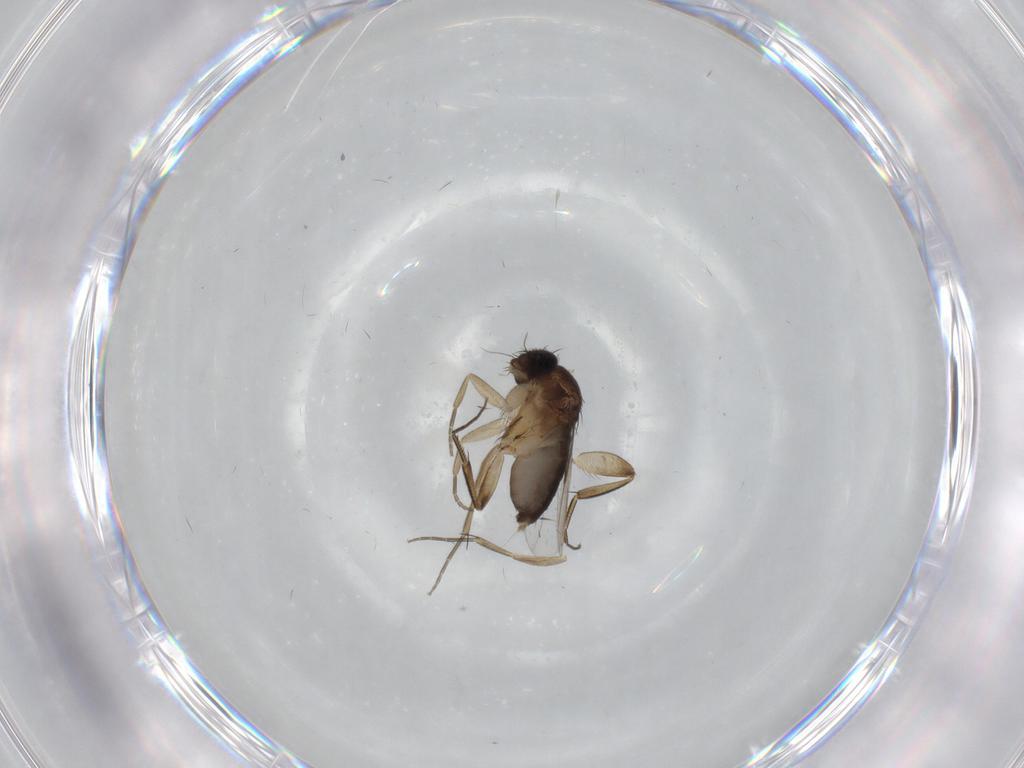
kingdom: Animalia
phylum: Arthropoda
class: Insecta
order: Diptera
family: Phoridae
